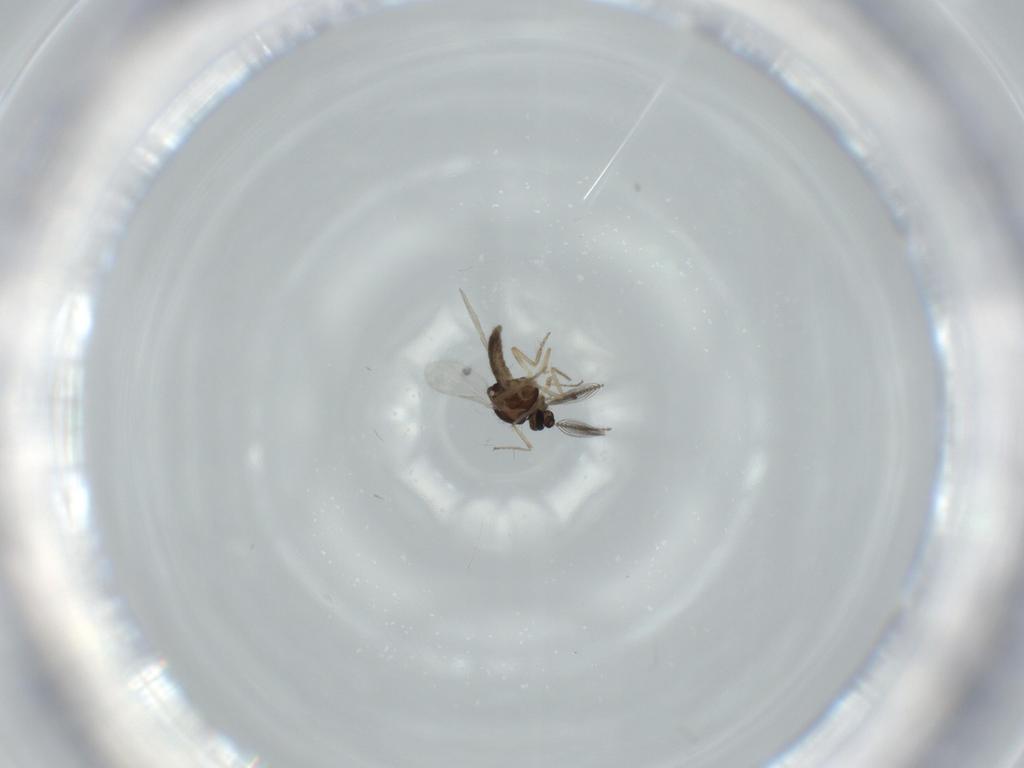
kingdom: Animalia
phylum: Arthropoda
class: Insecta
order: Diptera
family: Ceratopogonidae
